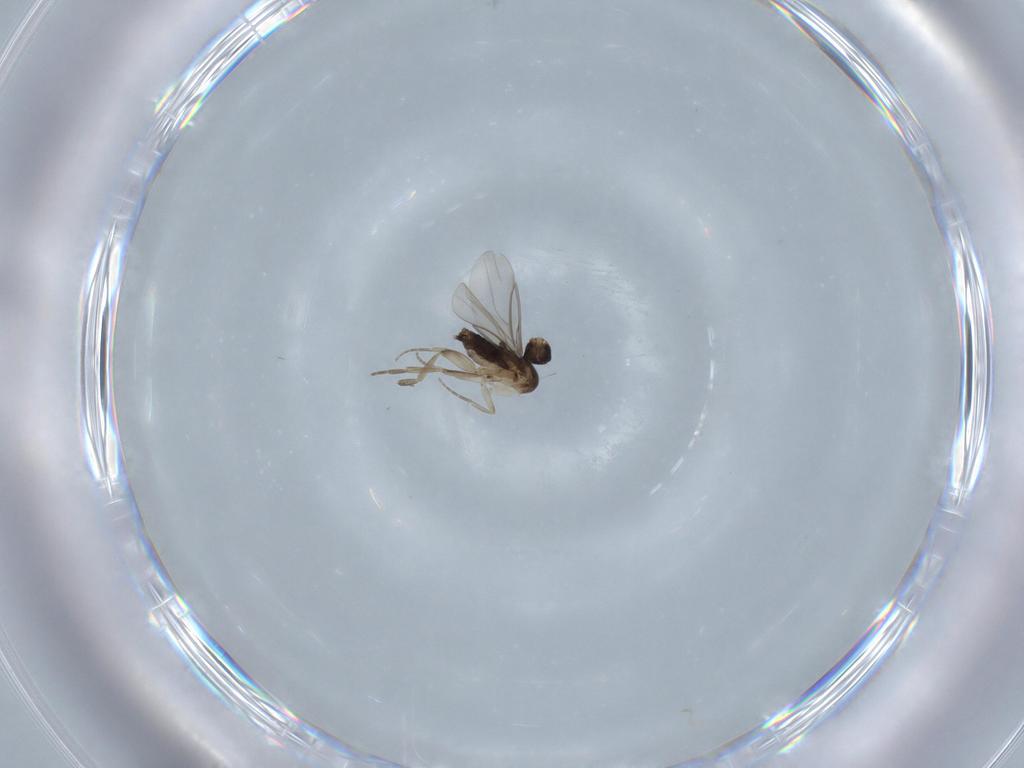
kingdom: Animalia
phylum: Arthropoda
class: Insecta
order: Diptera
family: Phoridae
